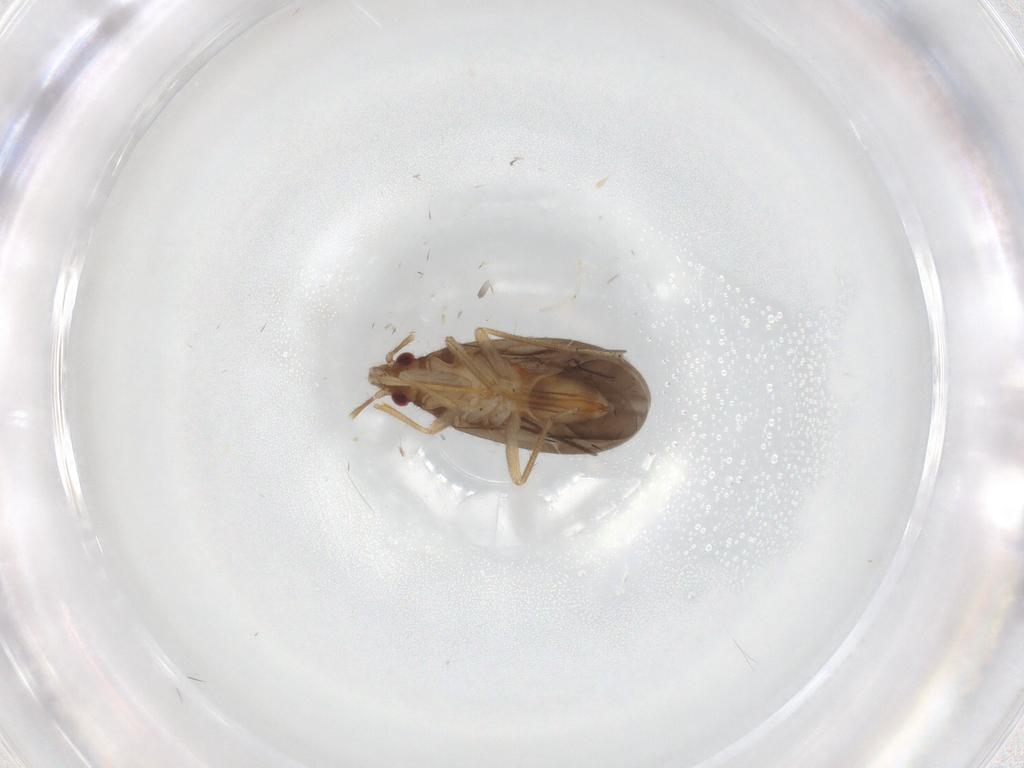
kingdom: Animalia
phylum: Arthropoda
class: Insecta
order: Hemiptera
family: Ceratocombidae
